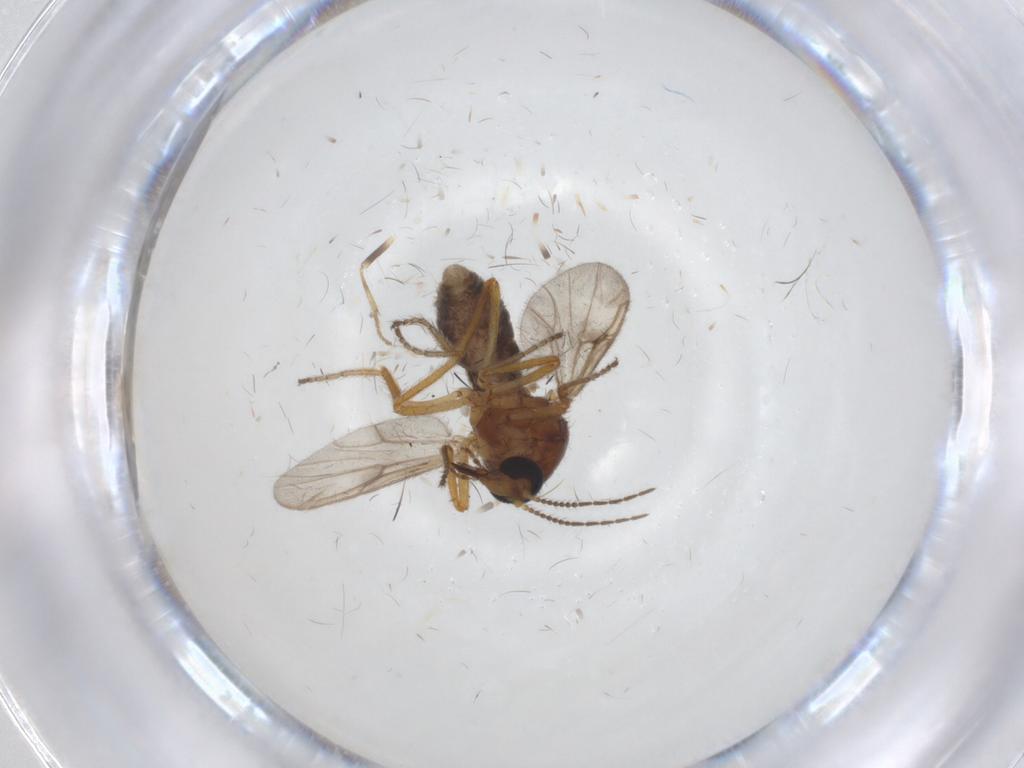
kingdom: Animalia
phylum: Arthropoda
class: Insecta
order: Diptera
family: Ceratopogonidae
